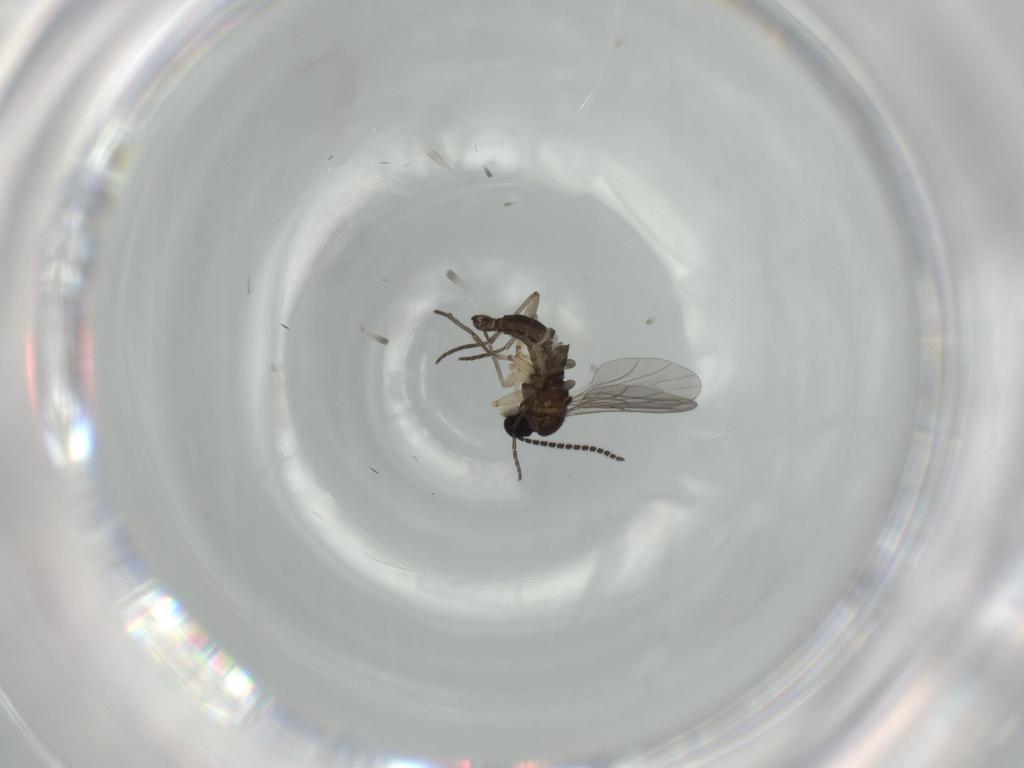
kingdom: Animalia
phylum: Arthropoda
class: Insecta
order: Diptera
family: Sciaridae
